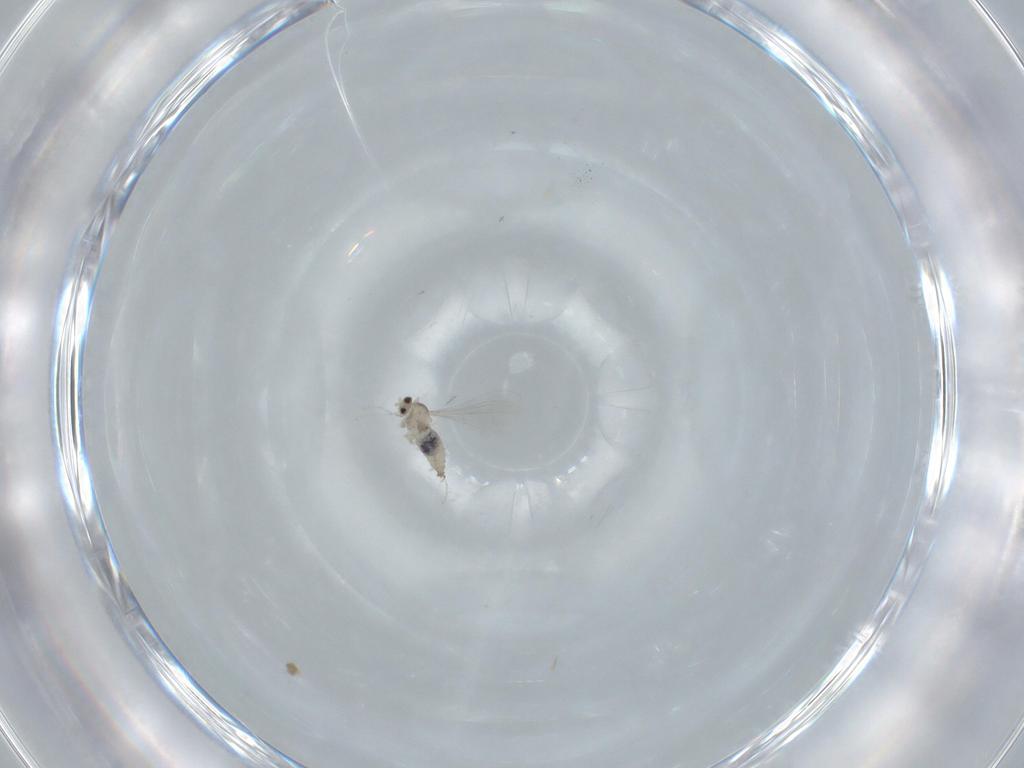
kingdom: Animalia
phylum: Arthropoda
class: Insecta
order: Diptera
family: Cecidomyiidae
